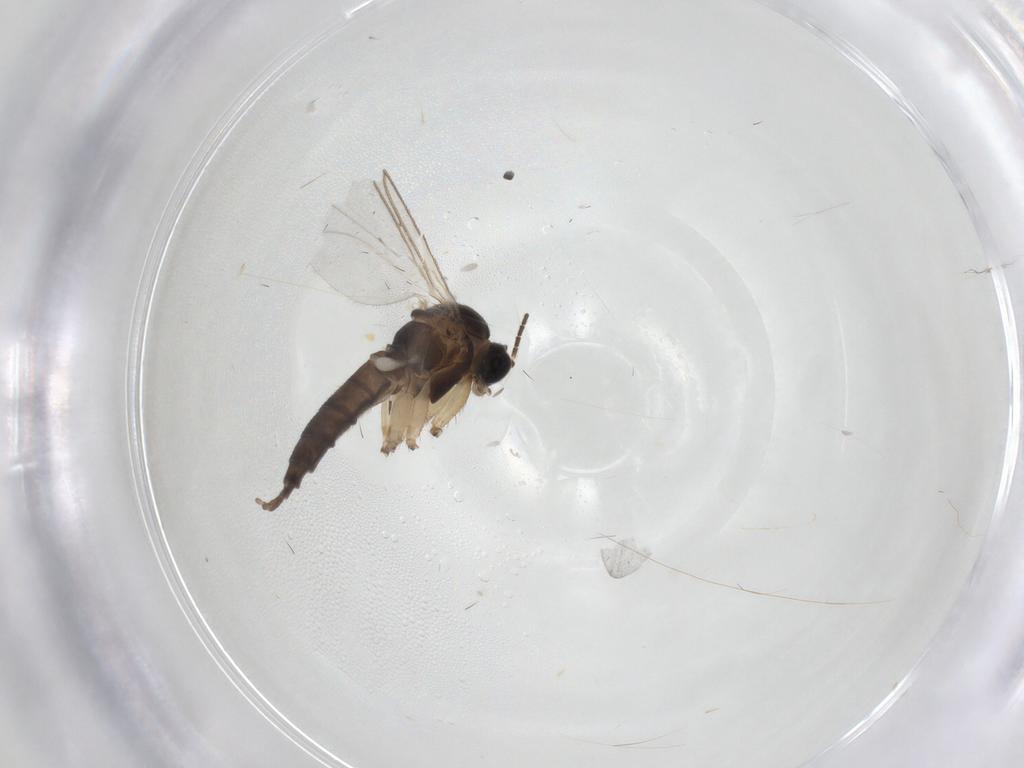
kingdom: Animalia
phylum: Arthropoda
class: Insecta
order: Diptera
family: Sciaridae
